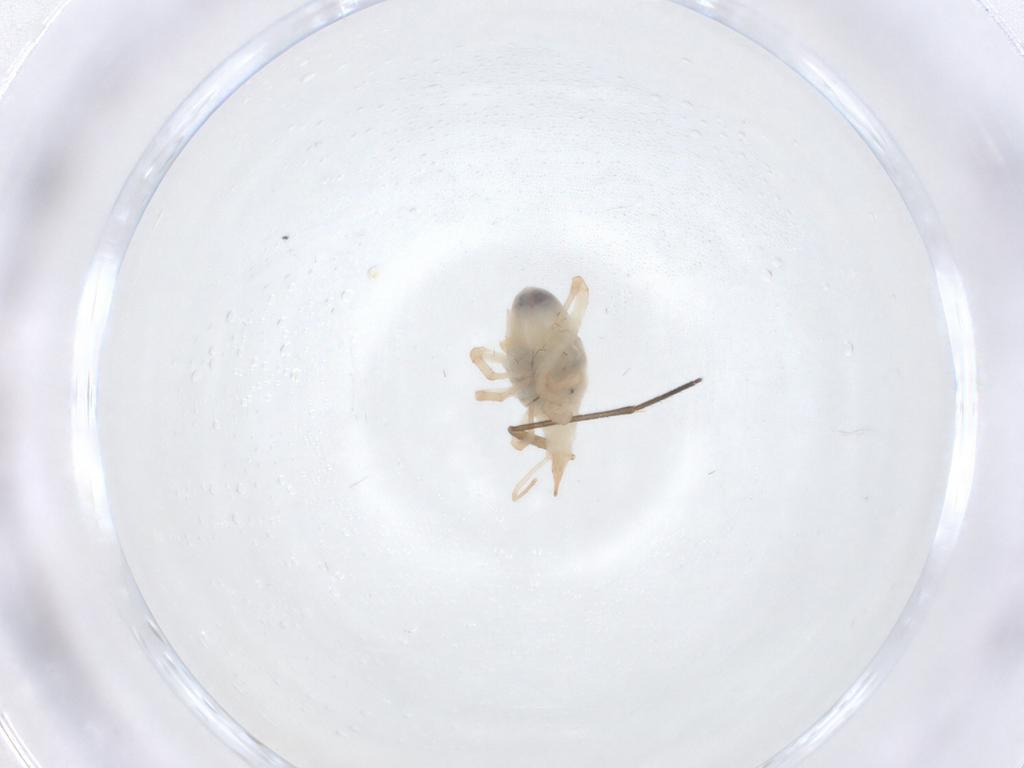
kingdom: Animalia
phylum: Arthropoda
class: Arachnida
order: Trombidiformes
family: Bdellidae
